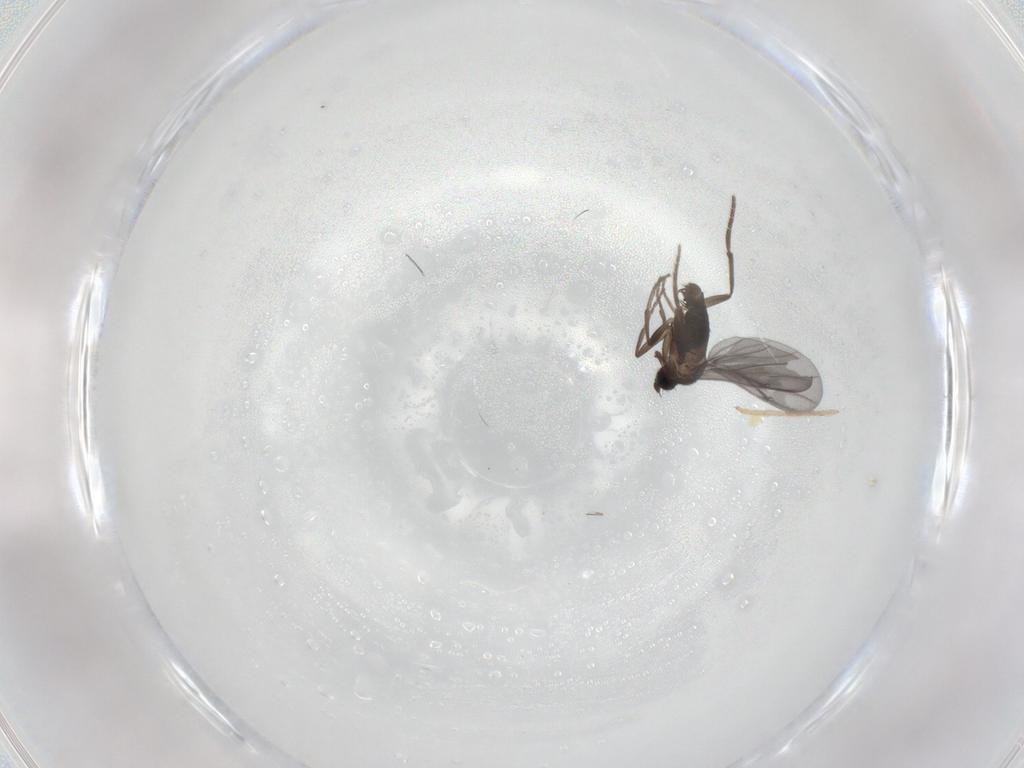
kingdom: Animalia
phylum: Arthropoda
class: Insecta
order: Diptera
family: Phoridae
